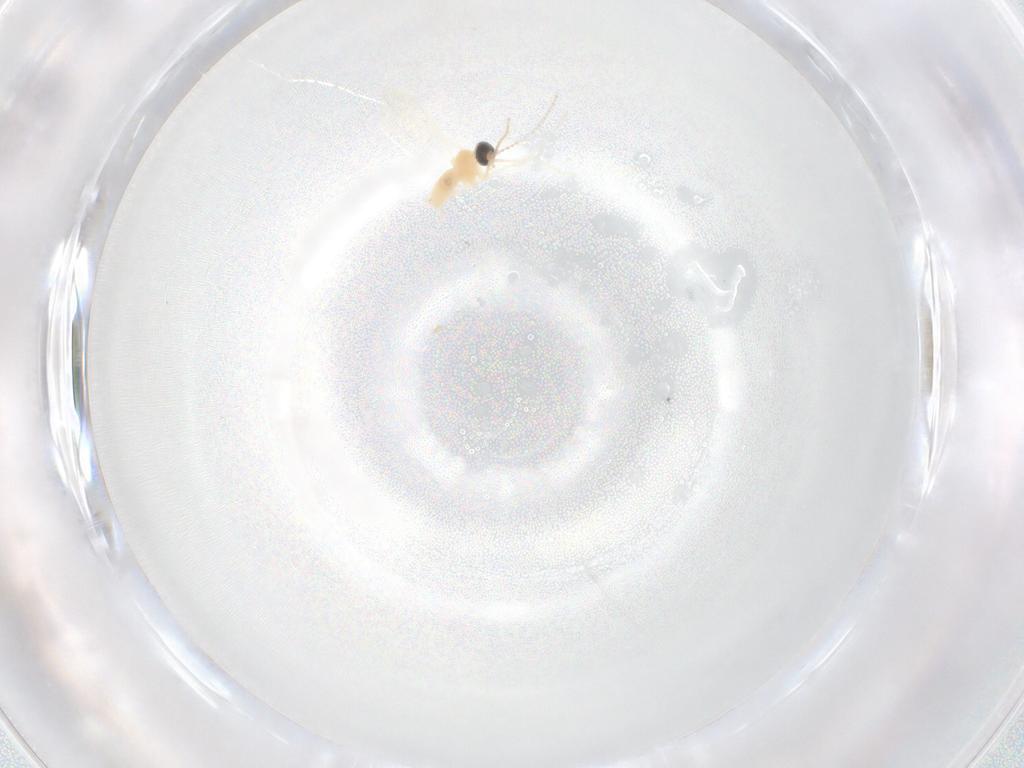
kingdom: Animalia
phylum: Arthropoda
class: Insecta
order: Diptera
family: Cecidomyiidae
